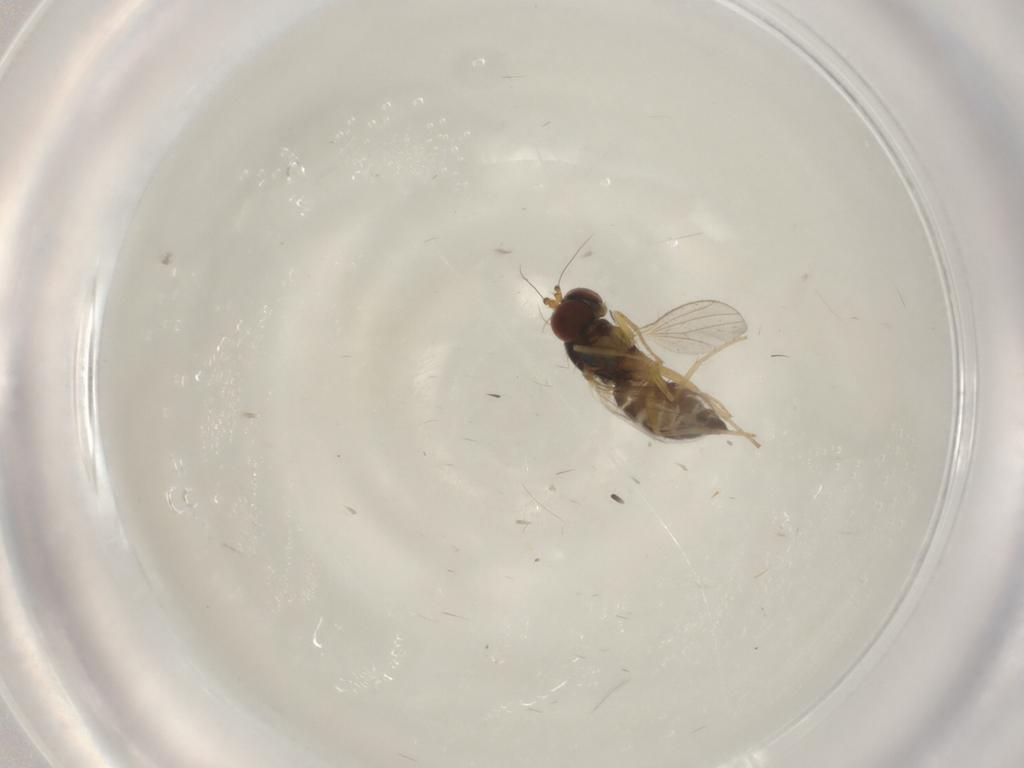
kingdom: Animalia
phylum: Arthropoda
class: Insecta
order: Diptera
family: Dolichopodidae
